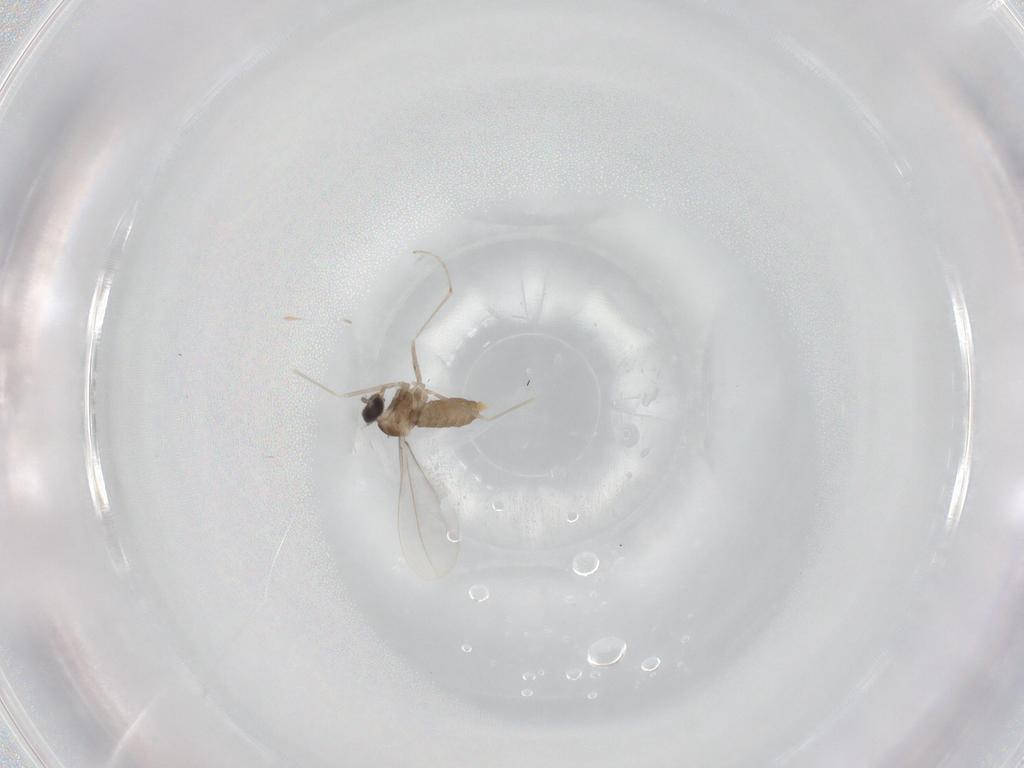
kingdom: Animalia
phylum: Arthropoda
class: Insecta
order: Diptera
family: Cecidomyiidae
